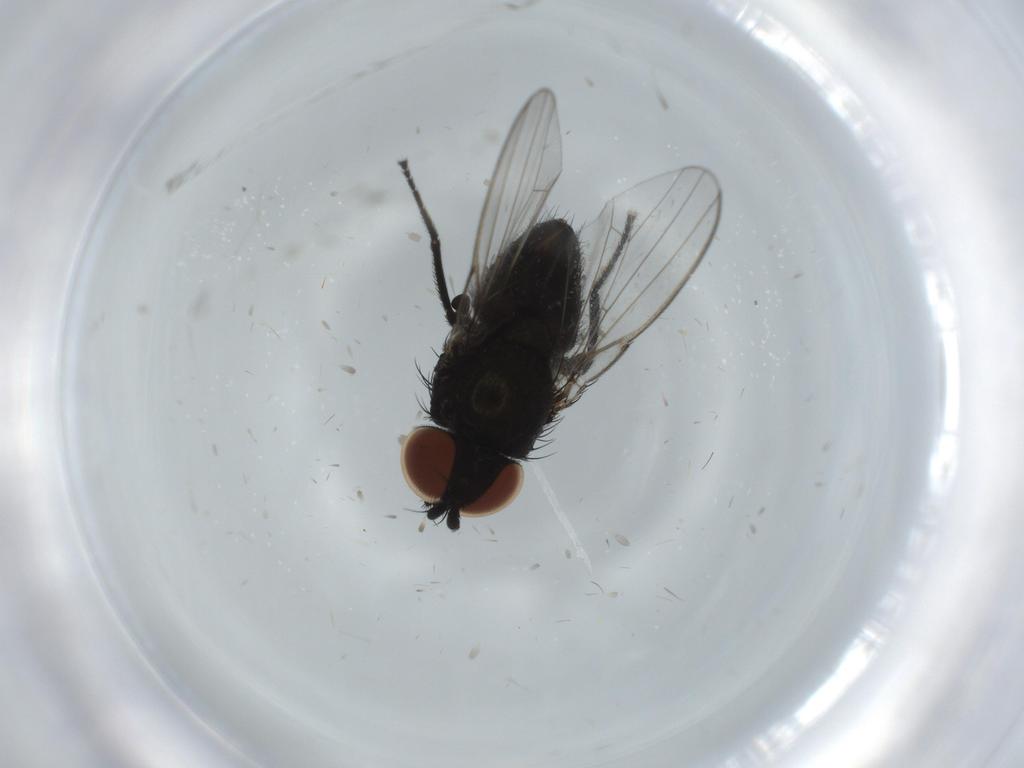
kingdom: Animalia
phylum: Arthropoda
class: Insecta
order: Diptera
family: Milichiidae
